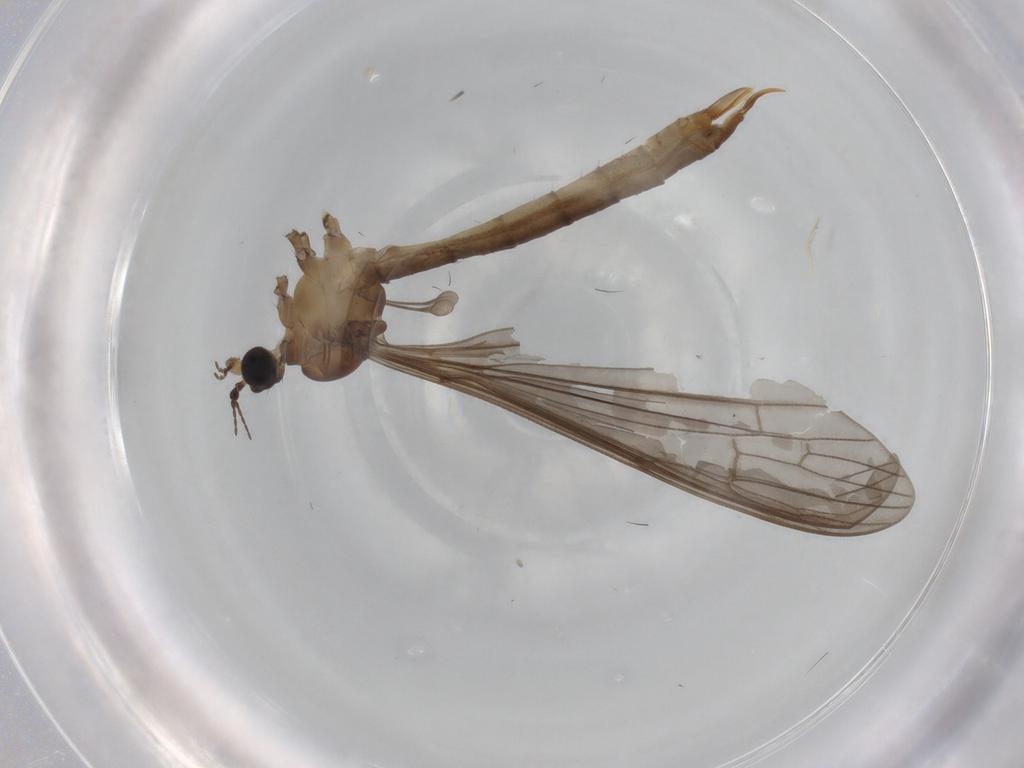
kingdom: Animalia
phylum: Arthropoda
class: Insecta
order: Diptera
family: Limoniidae
